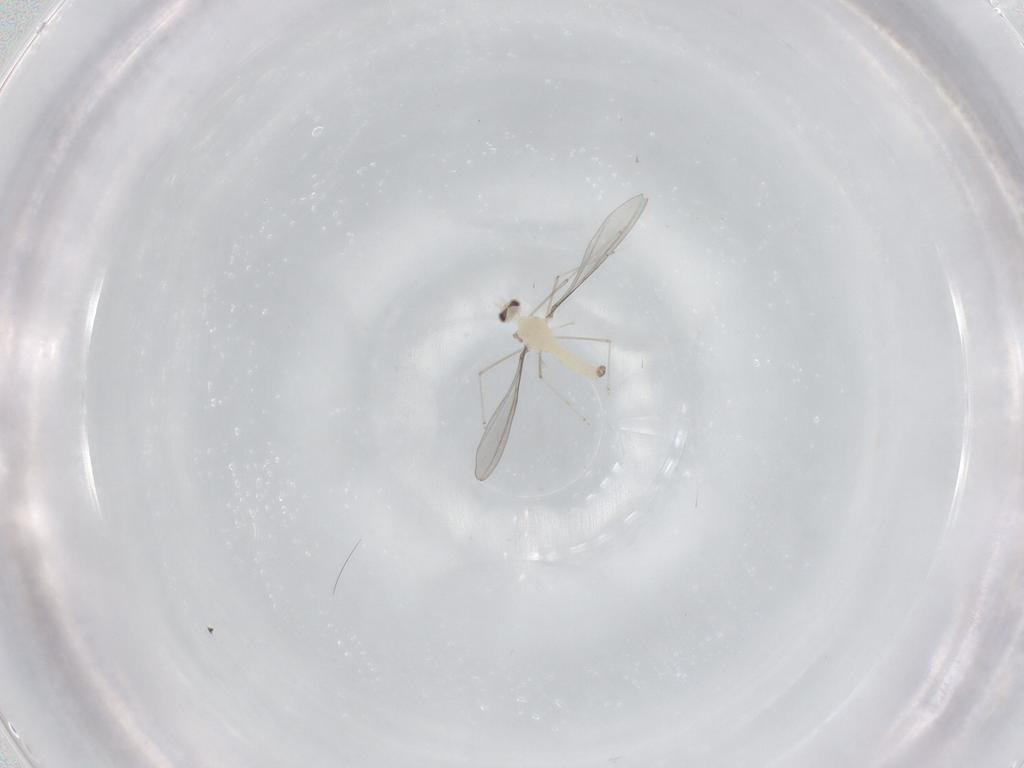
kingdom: Animalia
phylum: Arthropoda
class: Insecta
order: Diptera
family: Cecidomyiidae
